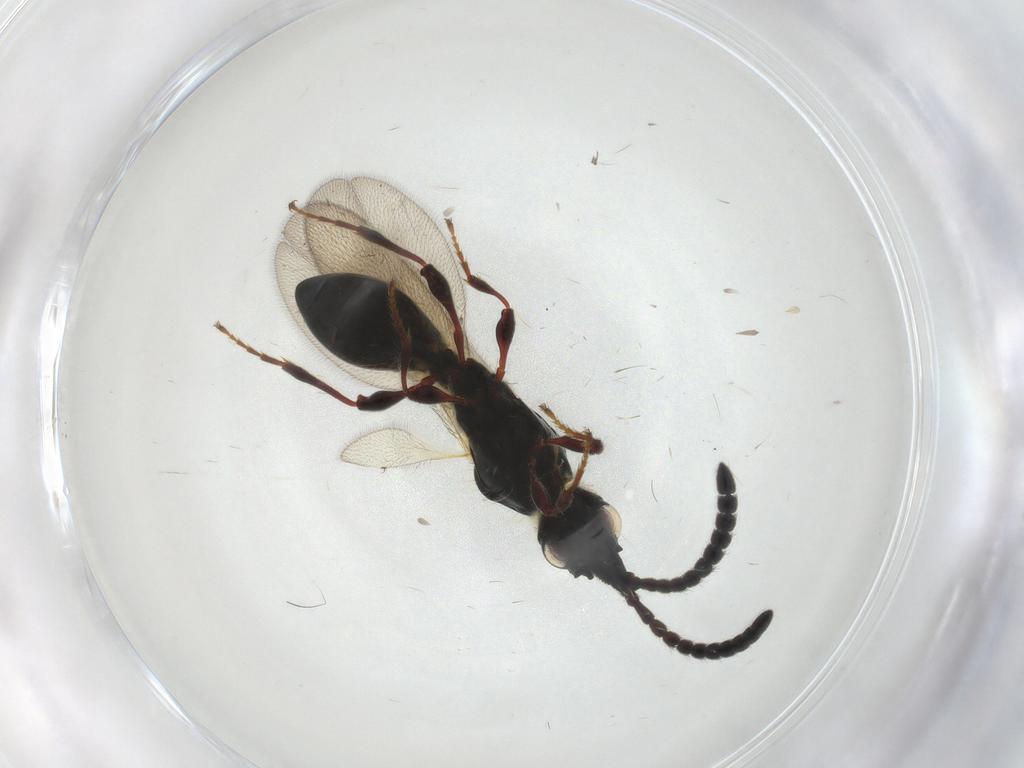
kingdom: Animalia
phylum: Arthropoda
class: Insecta
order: Hymenoptera
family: Diapriidae
